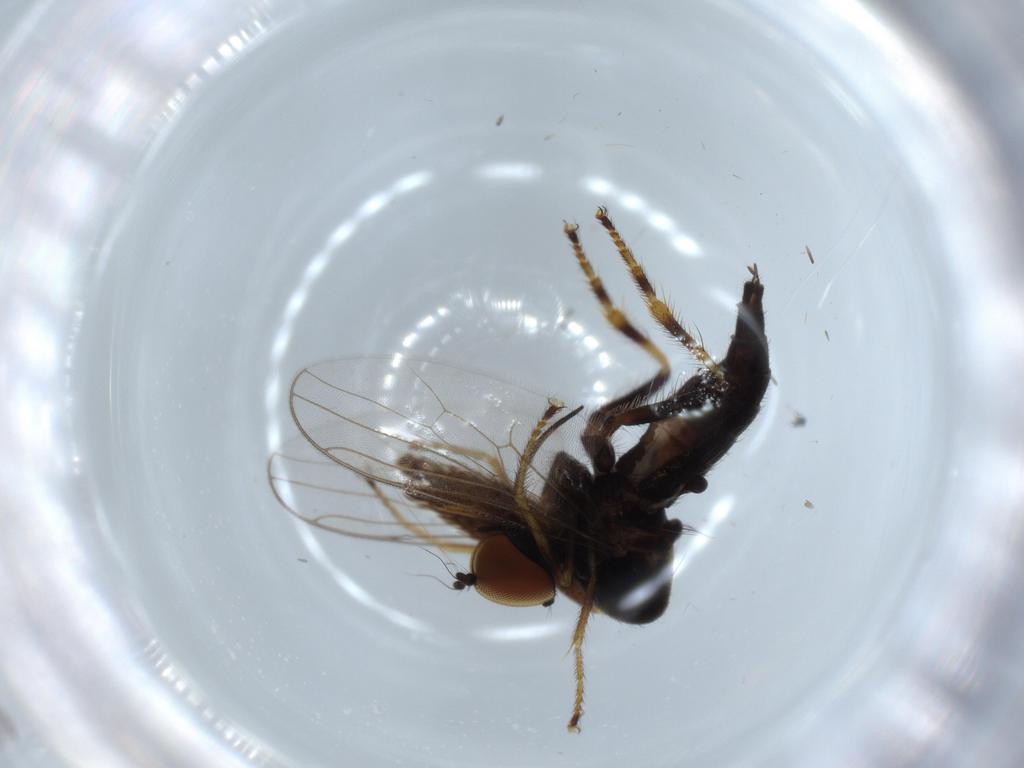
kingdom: Animalia
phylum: Arthropoda
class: Insecta
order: Diptera
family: Hybotidae
